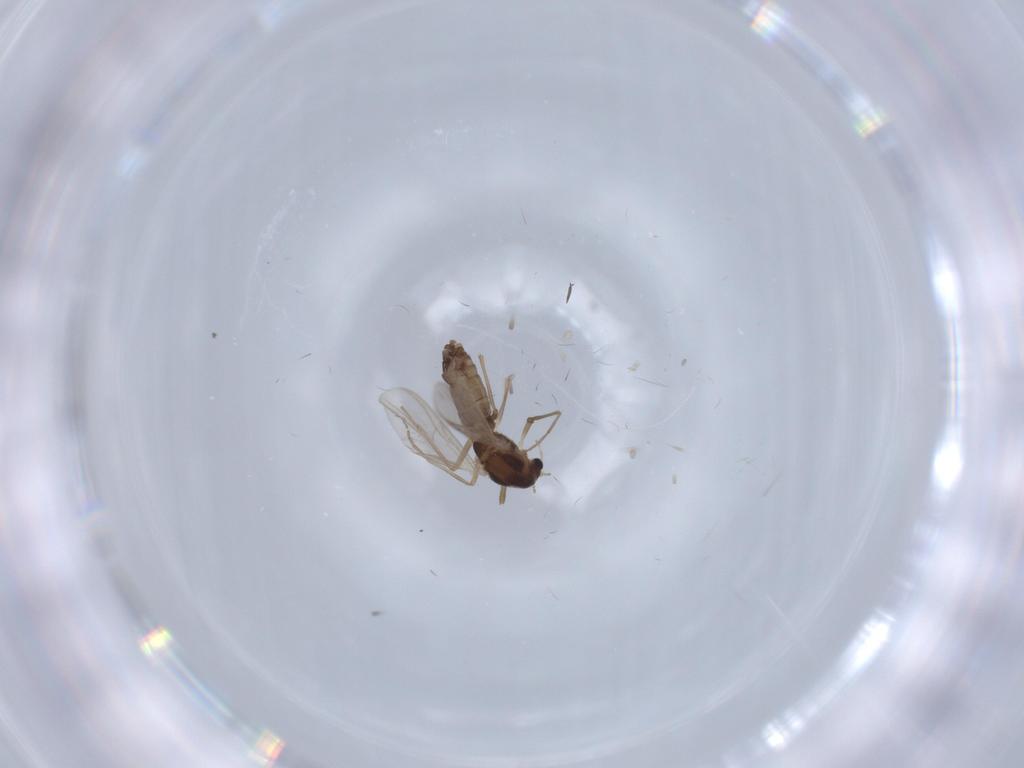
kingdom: Animalia
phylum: Arthropoda
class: Insecta
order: Diptera
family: Chironomidae
